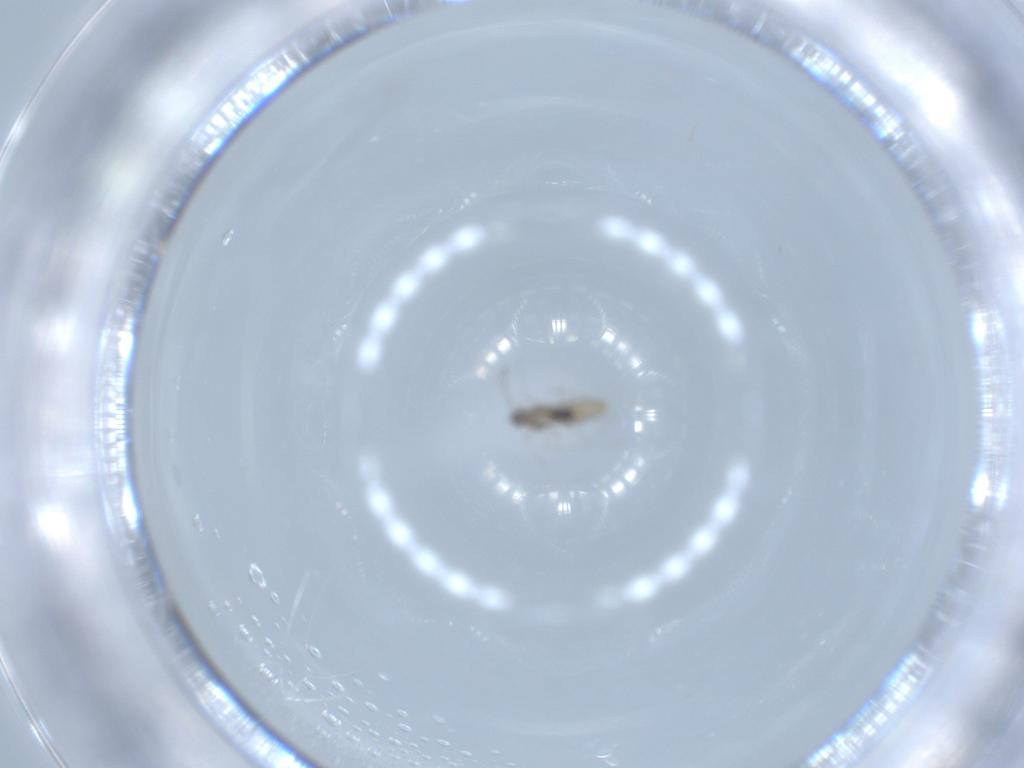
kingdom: Animalia
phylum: Arthropoda
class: Insecta
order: Diptera
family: Cecidomyiidae
